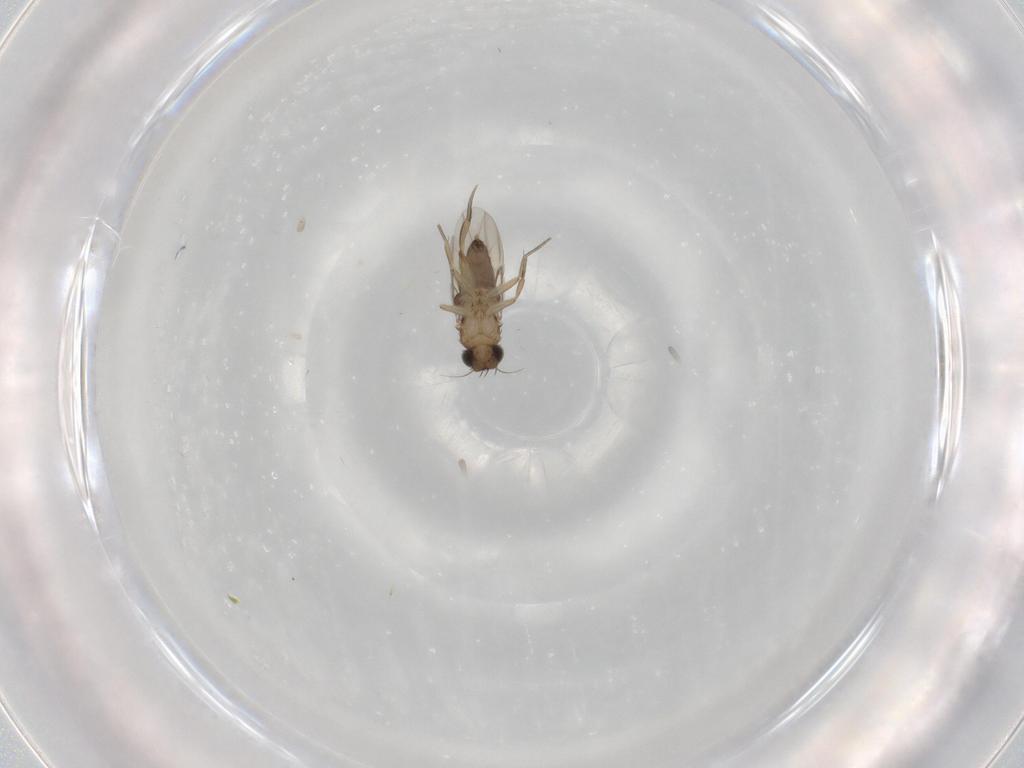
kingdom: Animalia
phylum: Arthropoda
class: Insecta
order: Diptera
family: Phoridae
